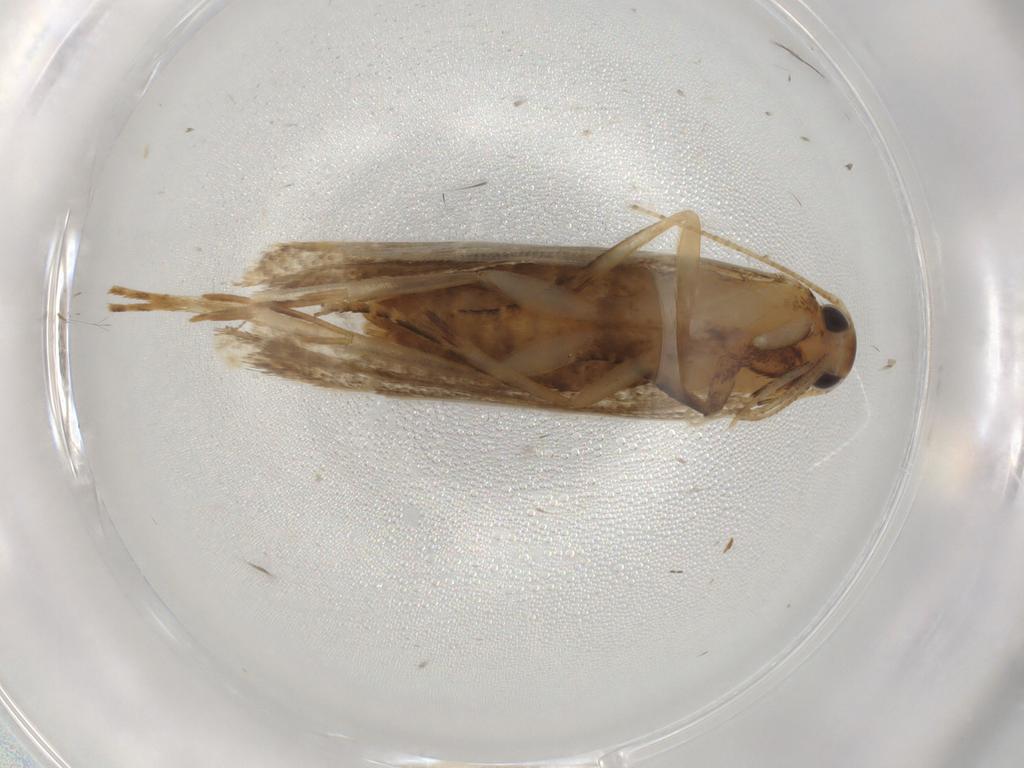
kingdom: Animalia
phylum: Arthropoda
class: Insecta
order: Lepidoptera
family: Gelechiidae
